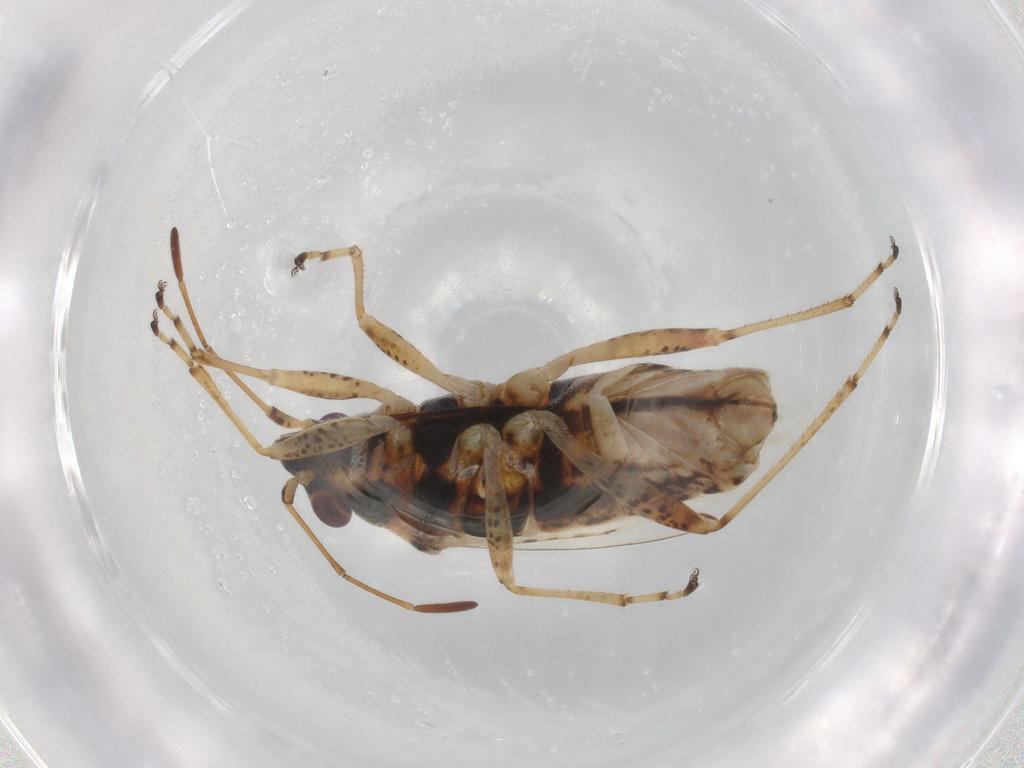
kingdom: Animalia
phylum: Arthropoda
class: Insecta
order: Hemiptera
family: Lygaeidae
